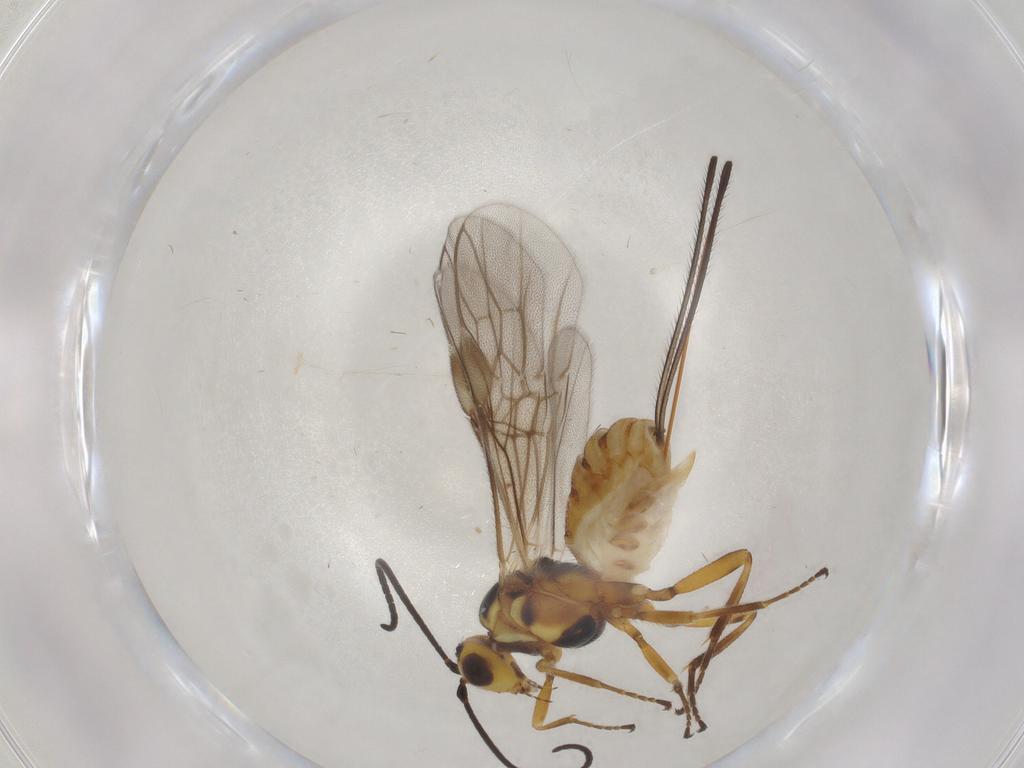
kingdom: Animalia
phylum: Arthropoda
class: Insecta
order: Hymenoptera
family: Braconidae
